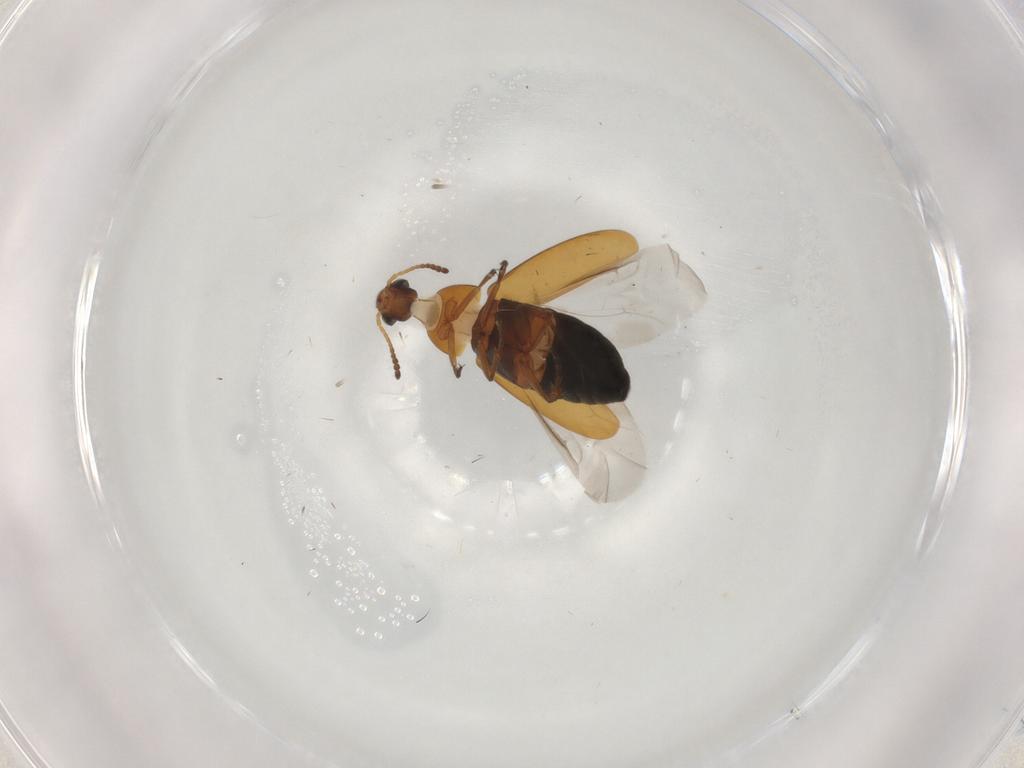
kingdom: Animalia
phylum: Arthropoda
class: Insecta
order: Coleoptera
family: Scraptiidae
